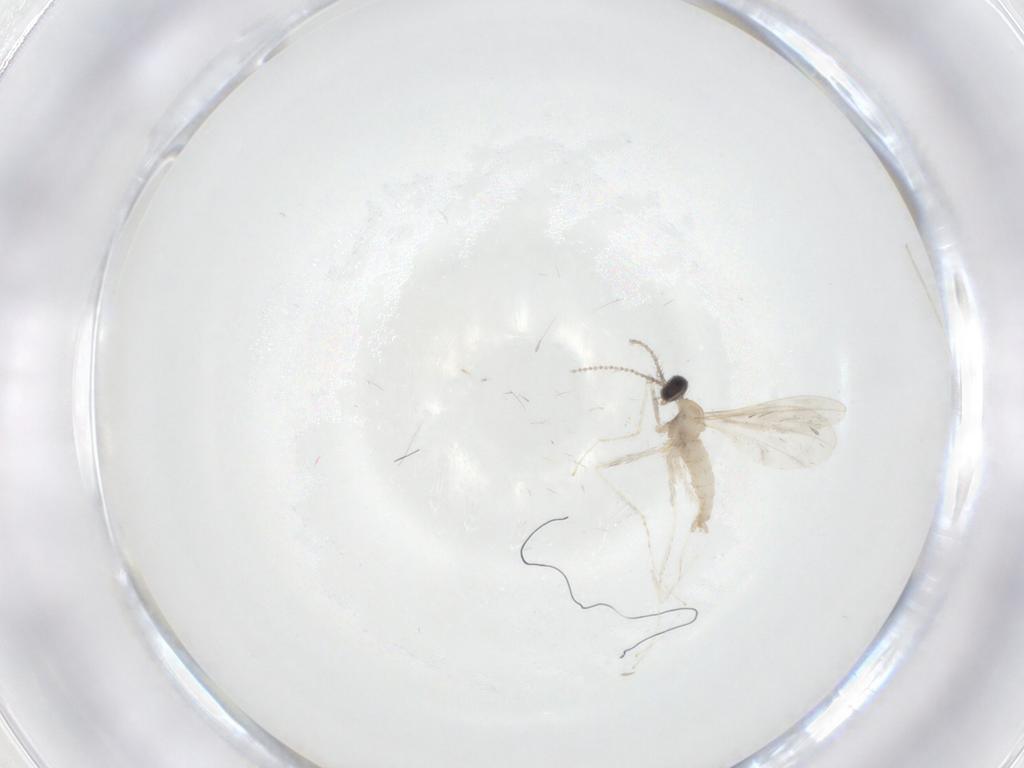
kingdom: Animalia
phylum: Arthropoda
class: Insecta
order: Diptera
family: Cecidomyiidae
